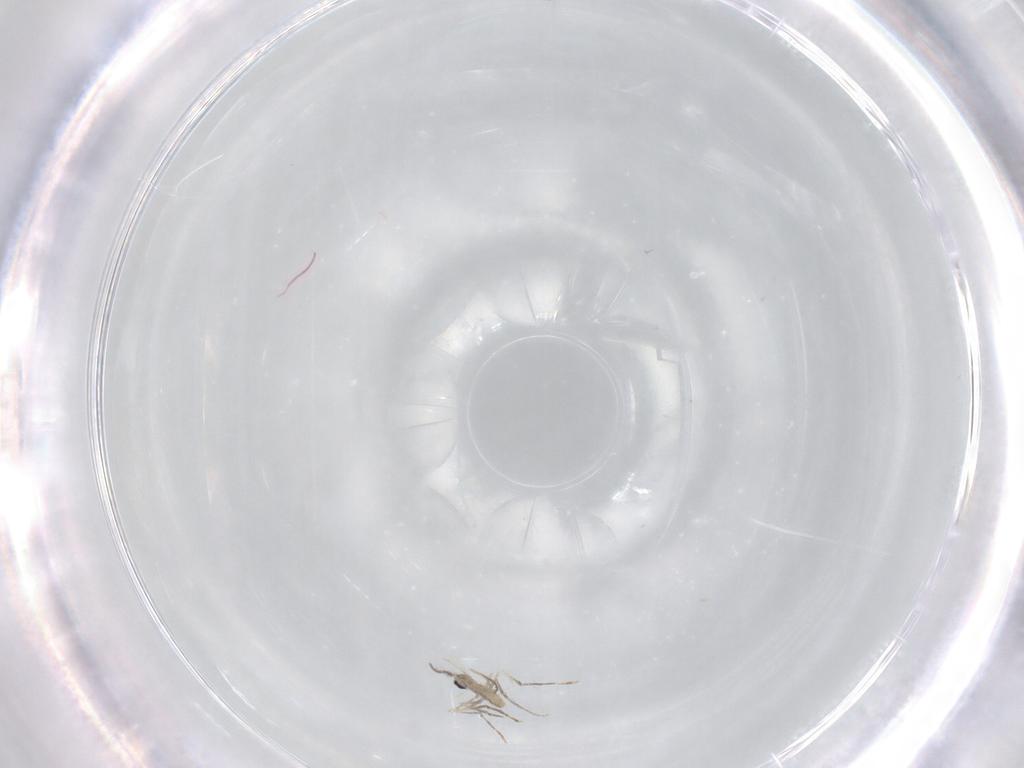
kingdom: Animalia
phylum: Arthropoda
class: Insecta
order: Diptera
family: Cecidomyiidae
